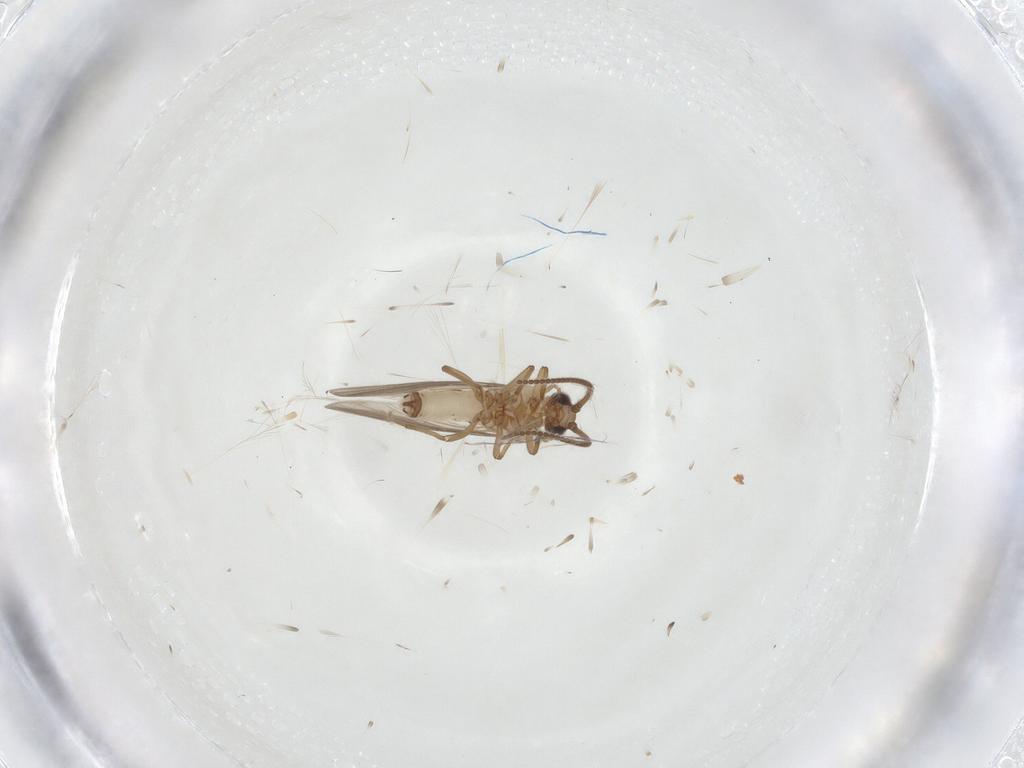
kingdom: Animalia
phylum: Arthropoda
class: Insecta
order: Neuroptera
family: Coniopterygidae
